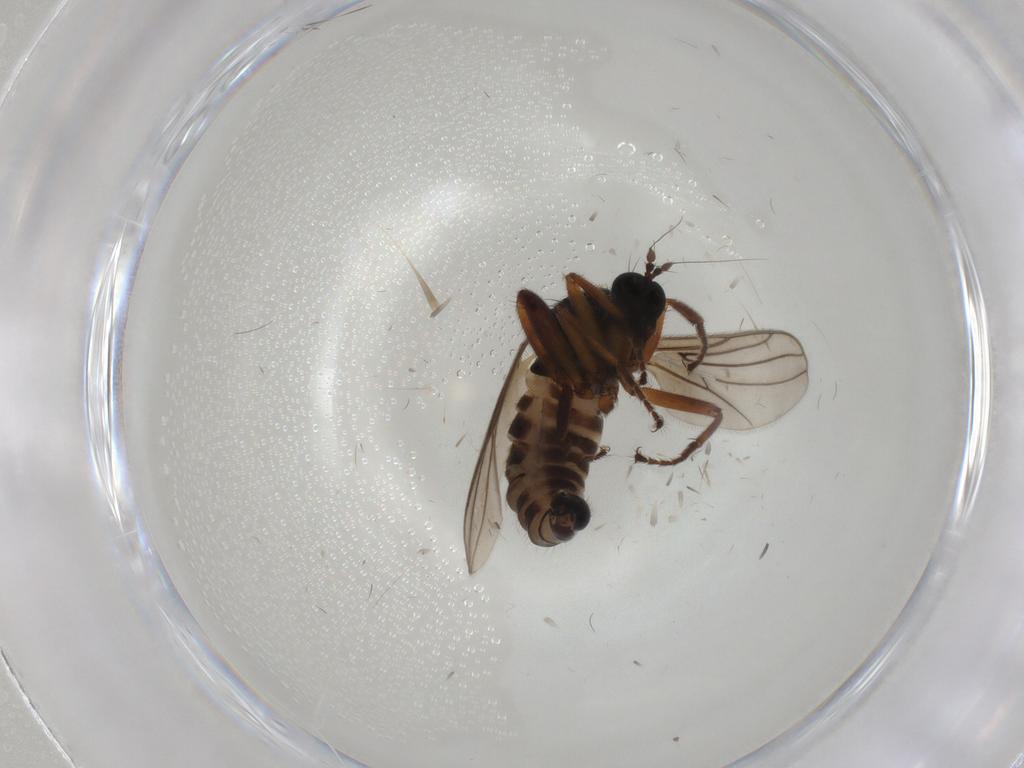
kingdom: Animalia
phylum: Arthropoda
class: Insecta
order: Diptera
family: Hybotidae
